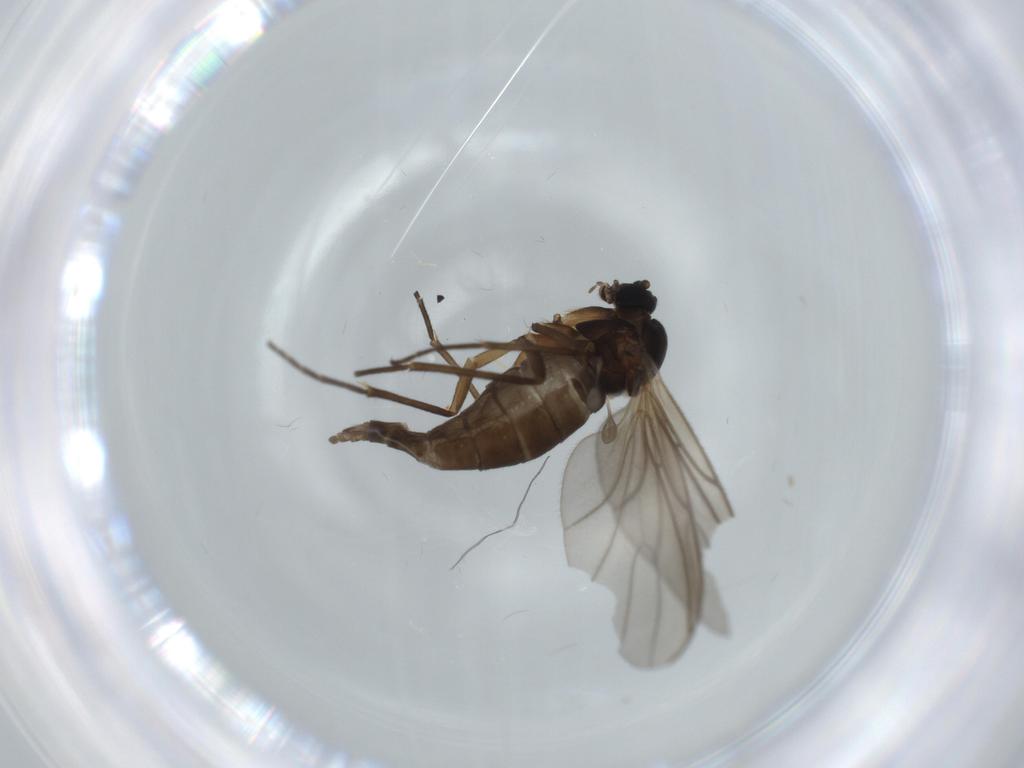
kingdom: Animalia
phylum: Arthropoda
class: Insecta
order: Diptera
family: Sciaridae
